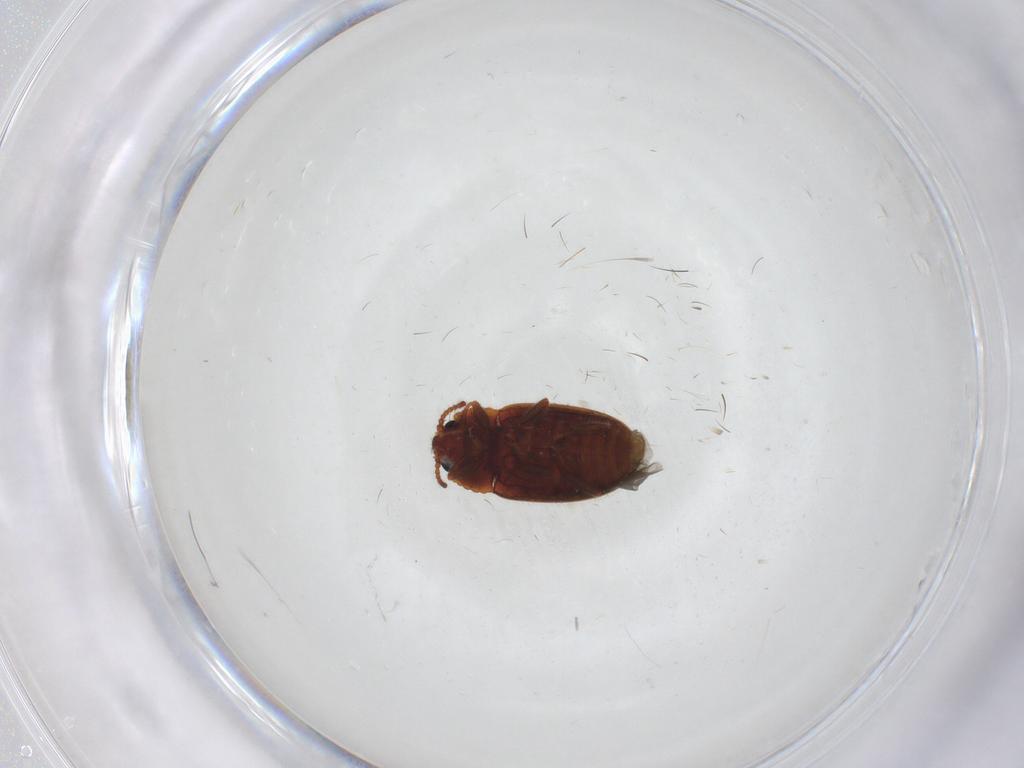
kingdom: Animalia
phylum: Arthropoda
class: Insecta
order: Coleoptera
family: Erotylidae
